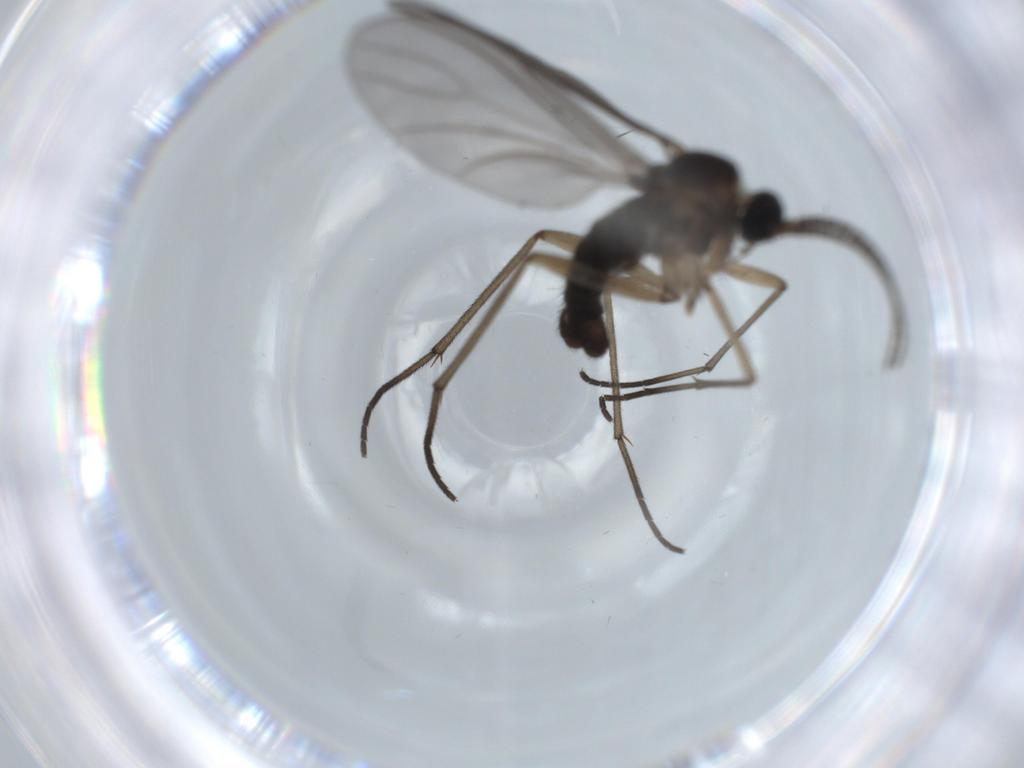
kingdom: Animalia
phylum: Arthropoda
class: Insecta
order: Diptera
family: Sciaridae
